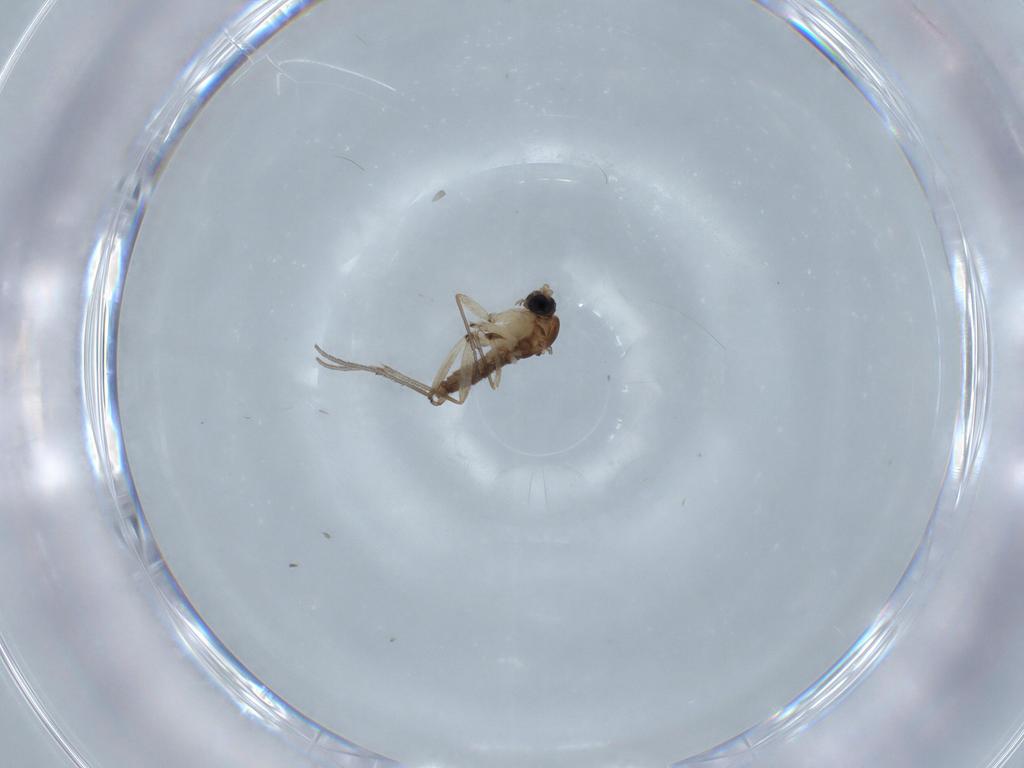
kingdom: Animalia
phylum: Arthropoda
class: Insecta
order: Diptera
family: Sciaridae
